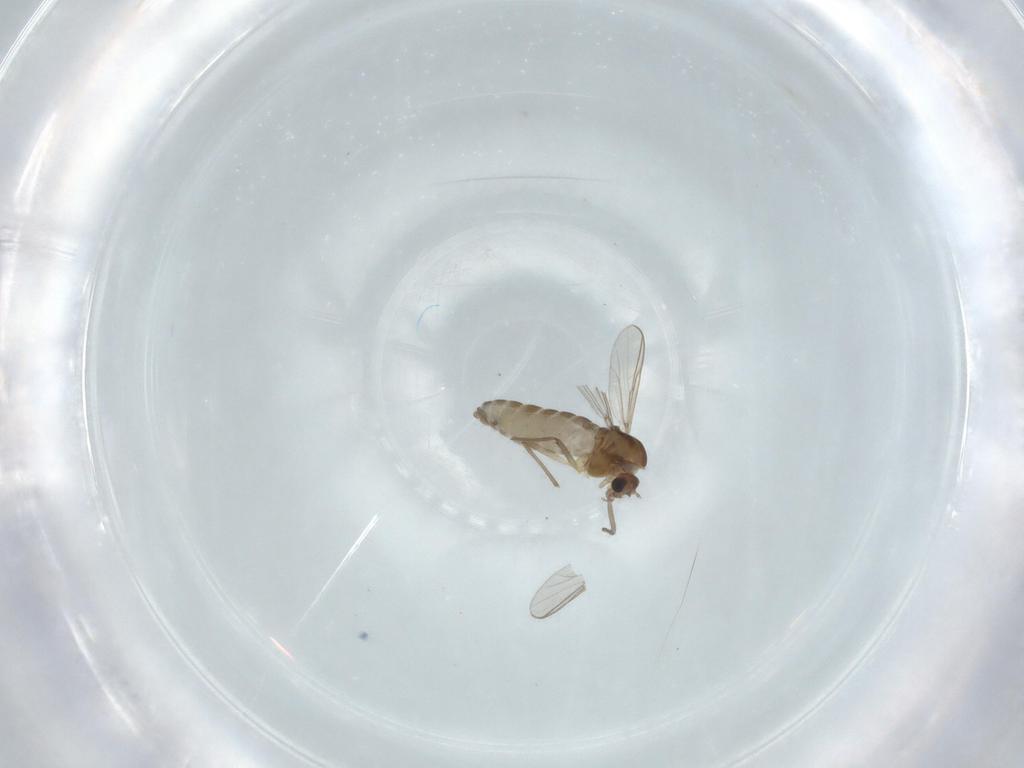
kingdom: Animalia
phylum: Arthropoda
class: Insecta
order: Diptera
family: Chironomidae
